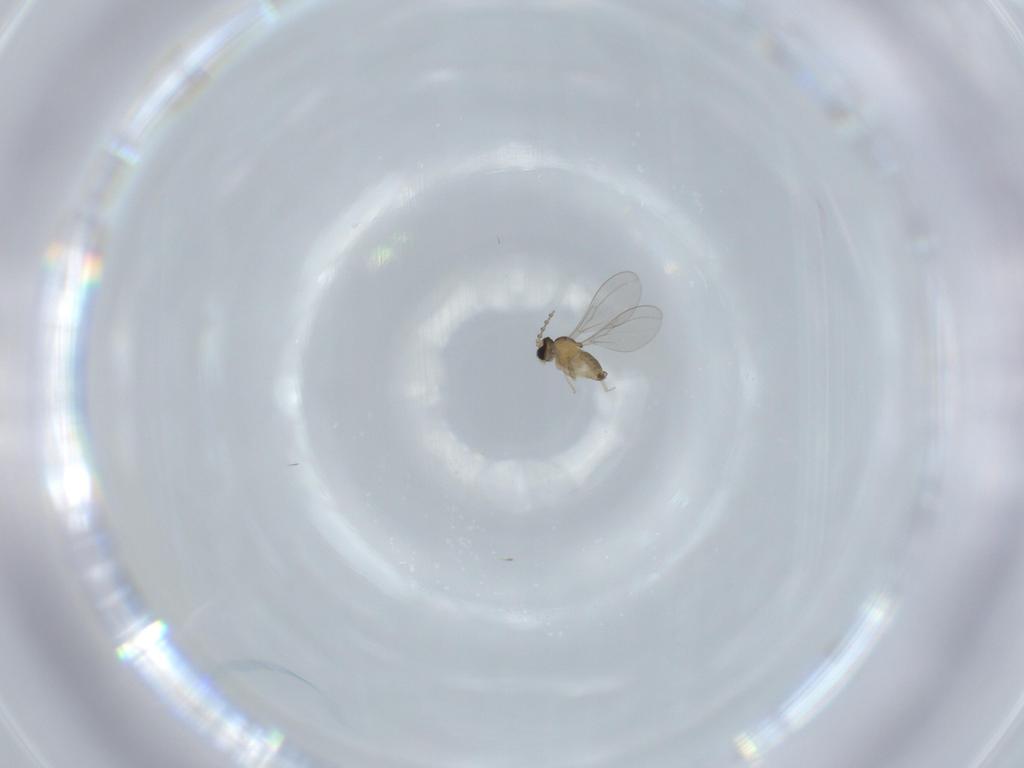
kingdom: Animalia
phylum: Arthropoda
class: Insecta
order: Diptera
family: Cecidomyiidae
